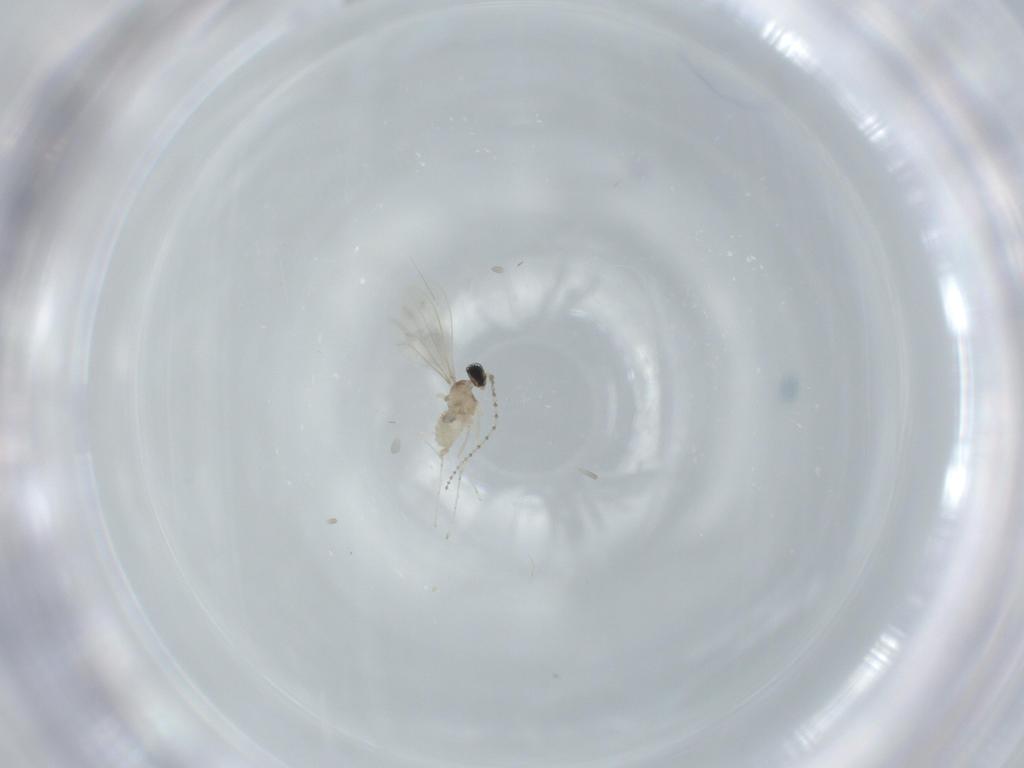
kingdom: Animalia
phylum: Arthropoda
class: Insecta
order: Diptera
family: Cecidomyiidae
